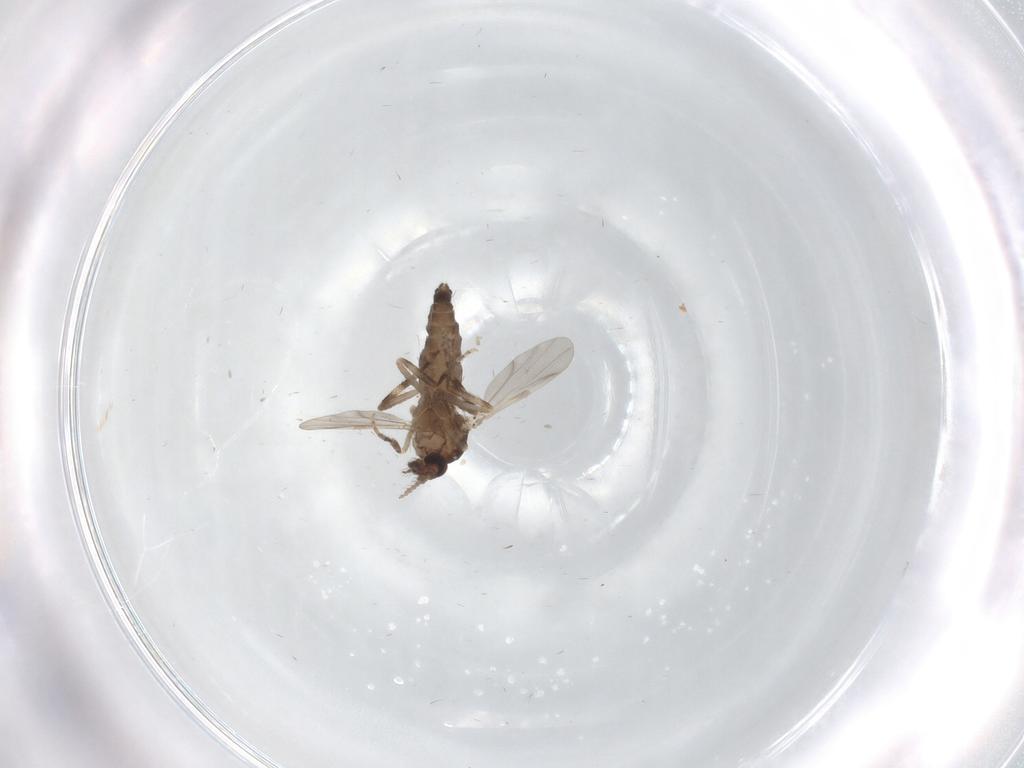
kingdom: Animalia
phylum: Arthropoda
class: Insecta
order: Diptera
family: Ceratopogonidae
